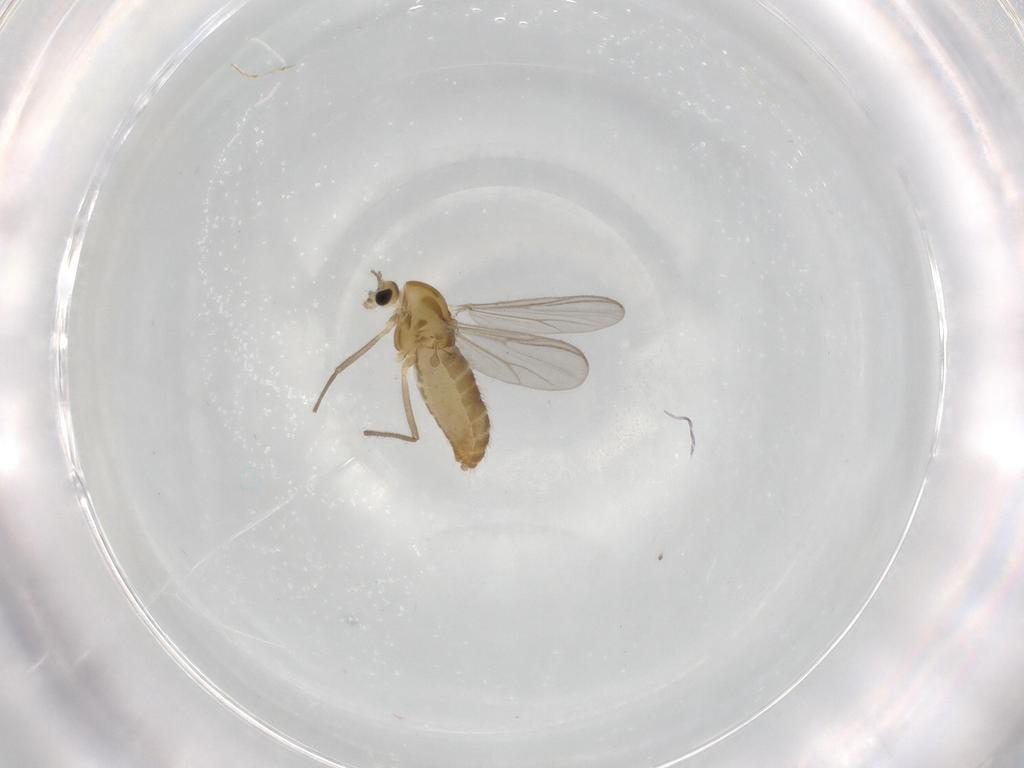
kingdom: Animalia
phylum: Arthropoda
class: Insecta
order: Diptera
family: Chironomidae
